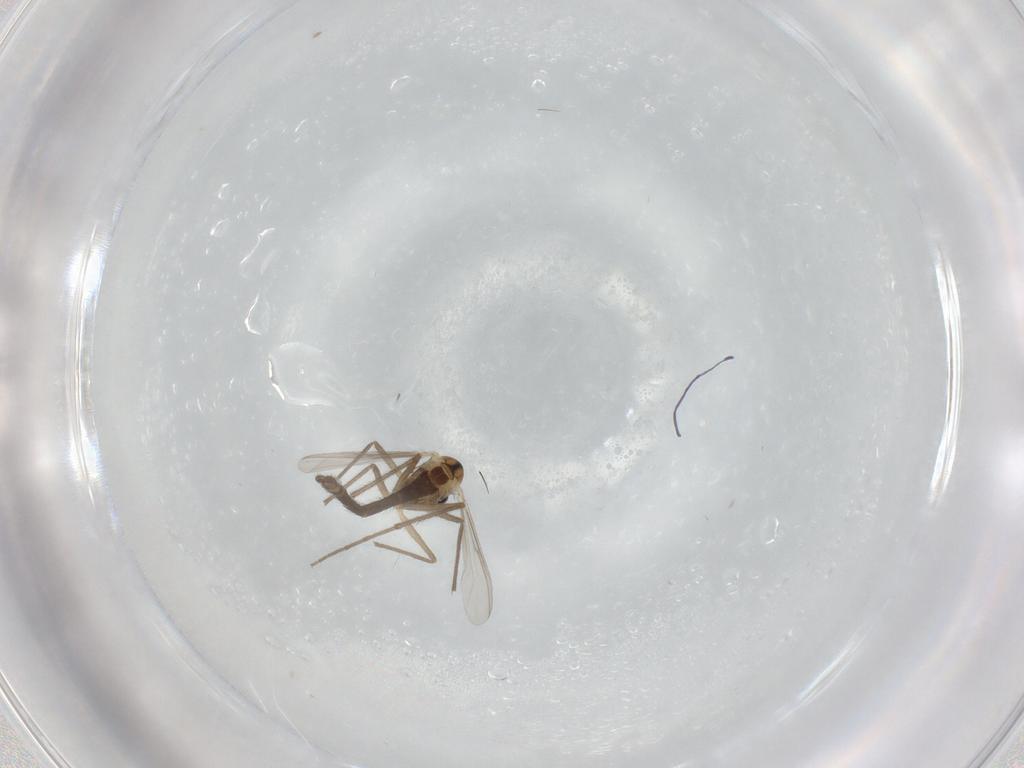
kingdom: Animalia
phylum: Arthropoda
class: Insecta
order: Diptera
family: Chironomidae
